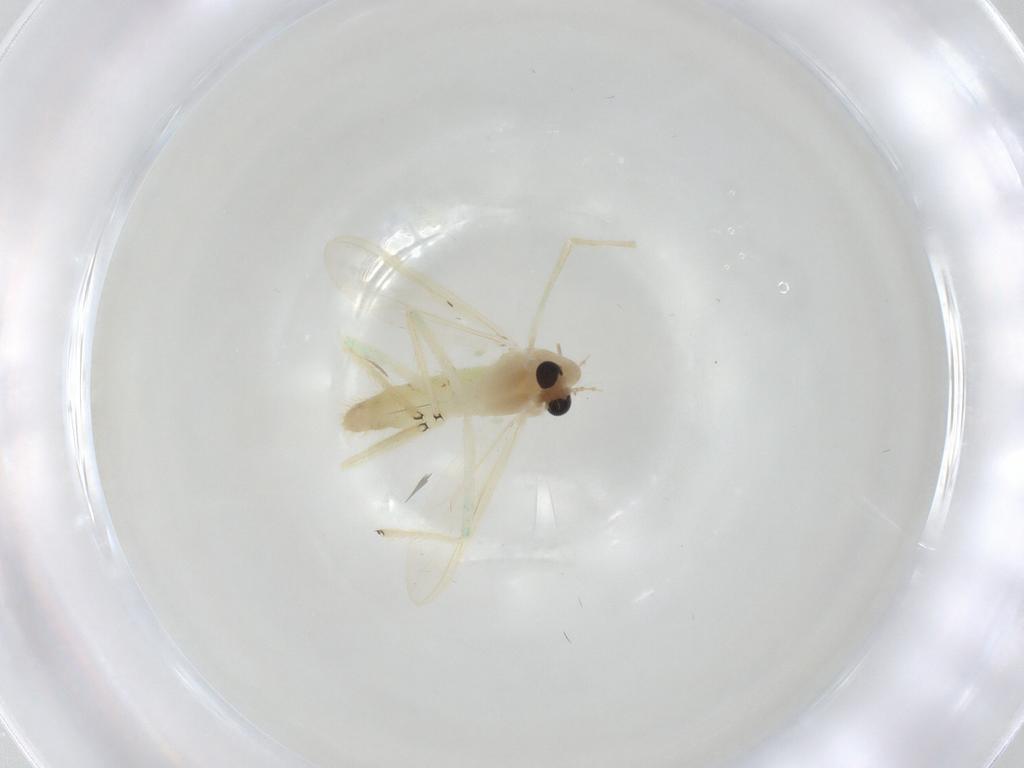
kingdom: Animalia
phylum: Arthropoda
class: Insecta
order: Diptera
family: Chironomidae
